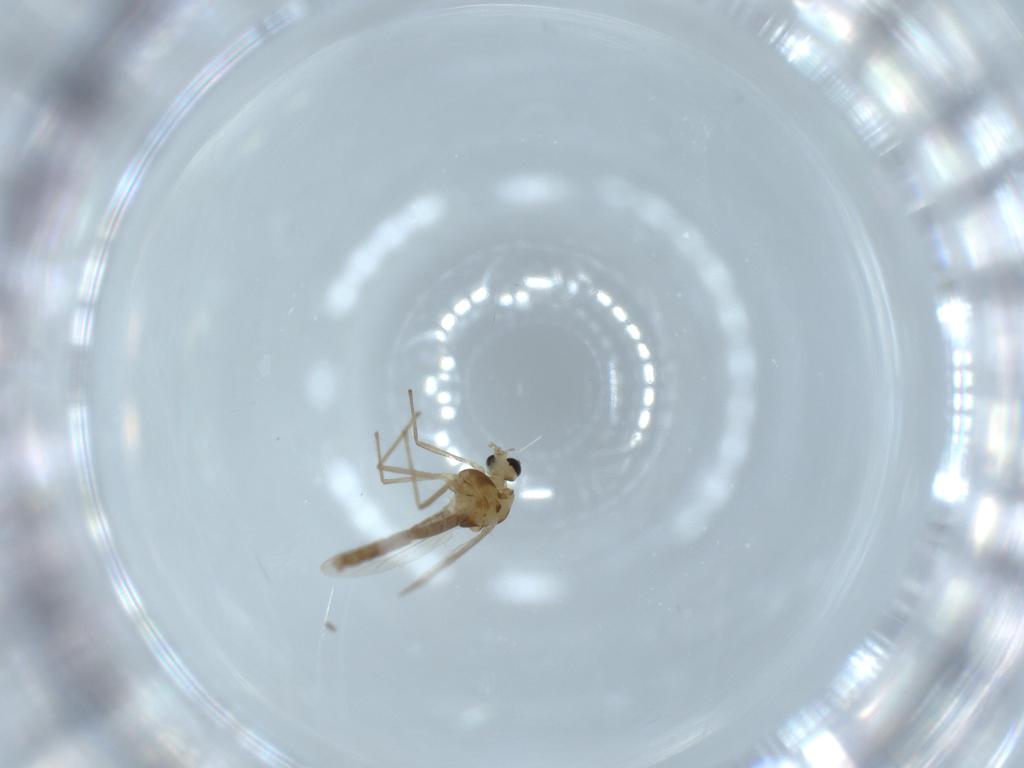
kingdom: Animalia
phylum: Arthropoda
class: Insecta
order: Diptera
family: Chironomidae
